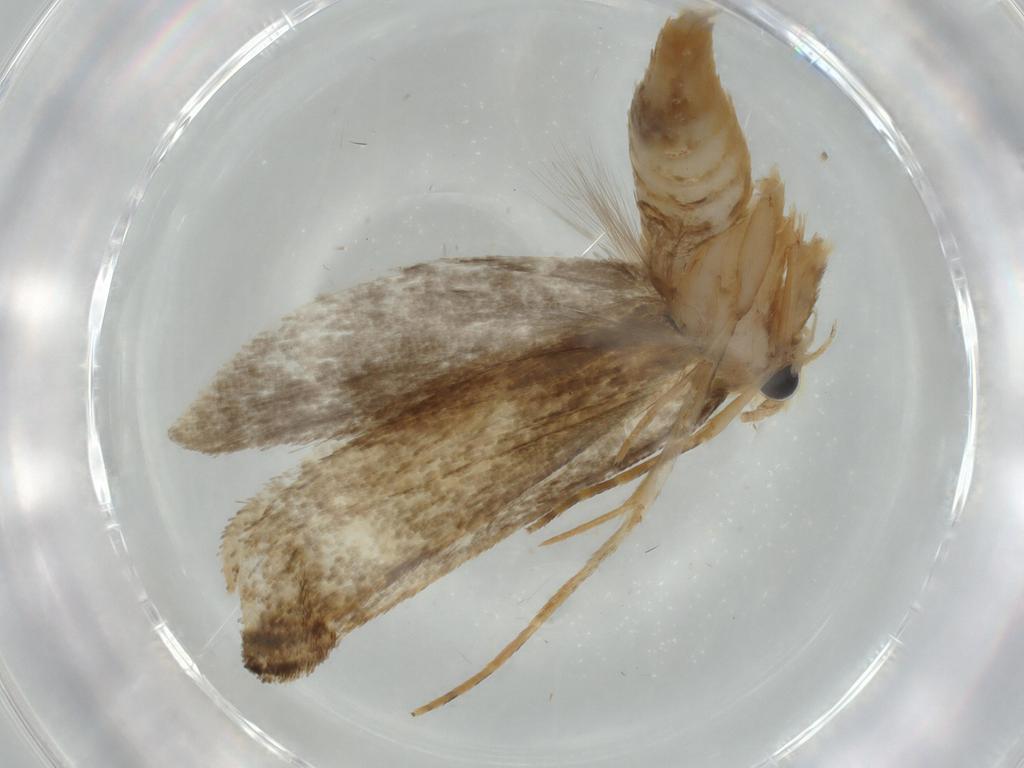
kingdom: Animalia
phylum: Arthropoda
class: Insecta
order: Lepidoptera
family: Tineidae
